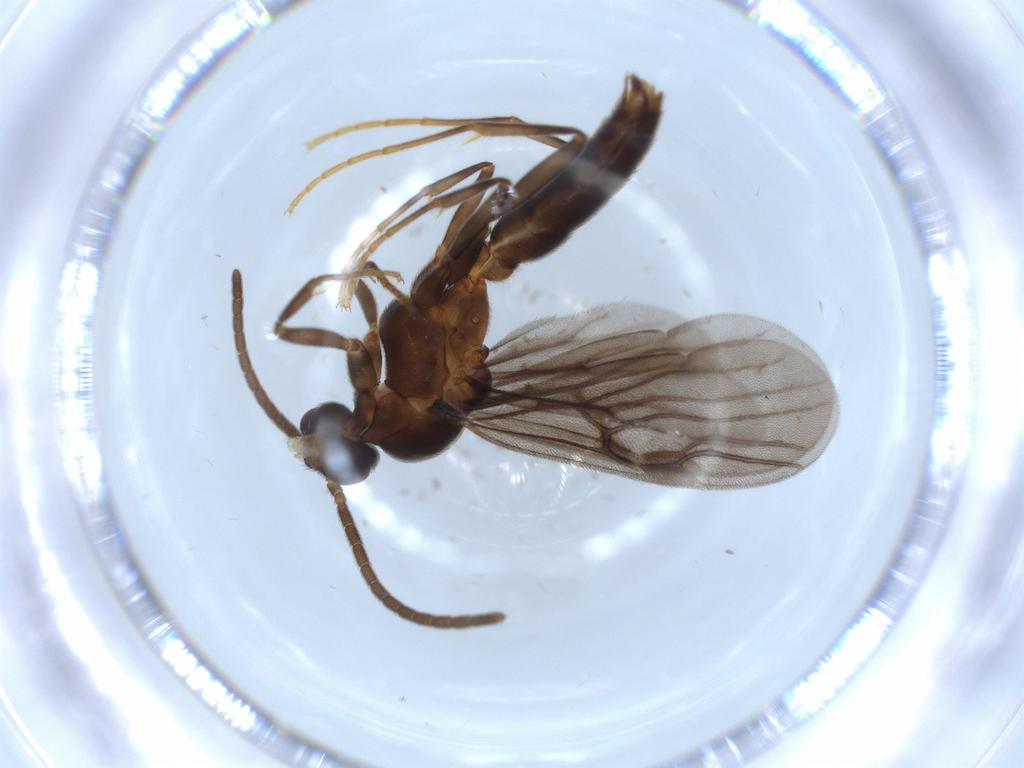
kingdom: Animalia
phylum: Arthropoda
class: Insecta
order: Hymenoptera
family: Formicidae
